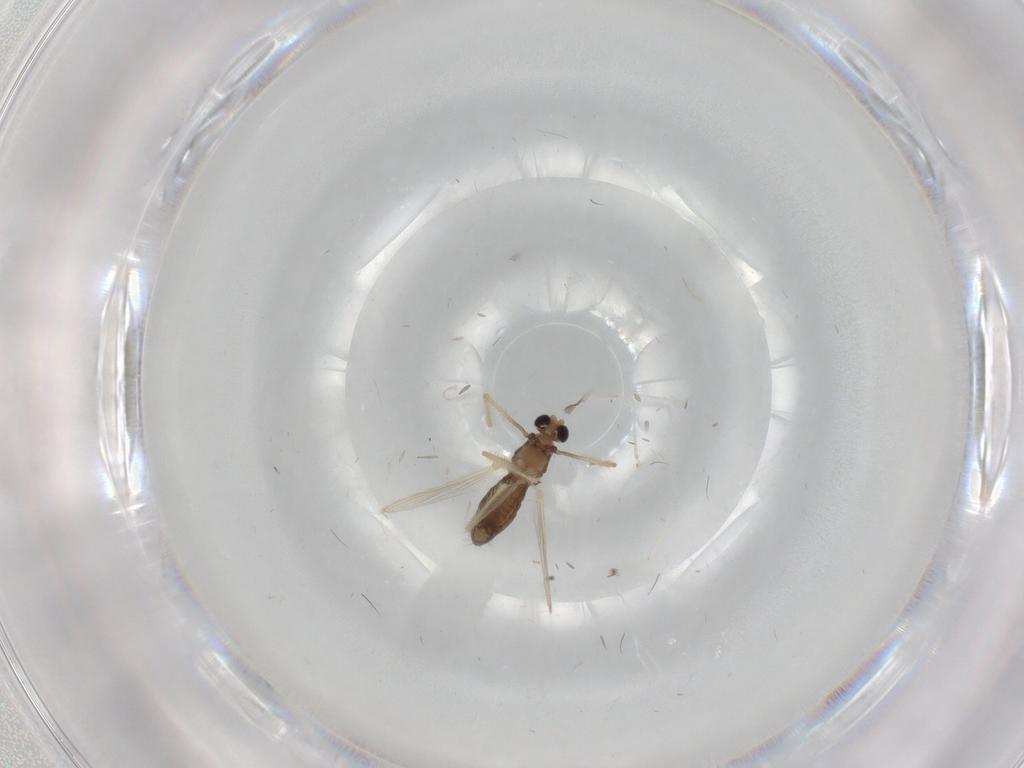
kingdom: Animalia
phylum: Arthropoda
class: Insecta
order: Diptera
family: Chironomidae
